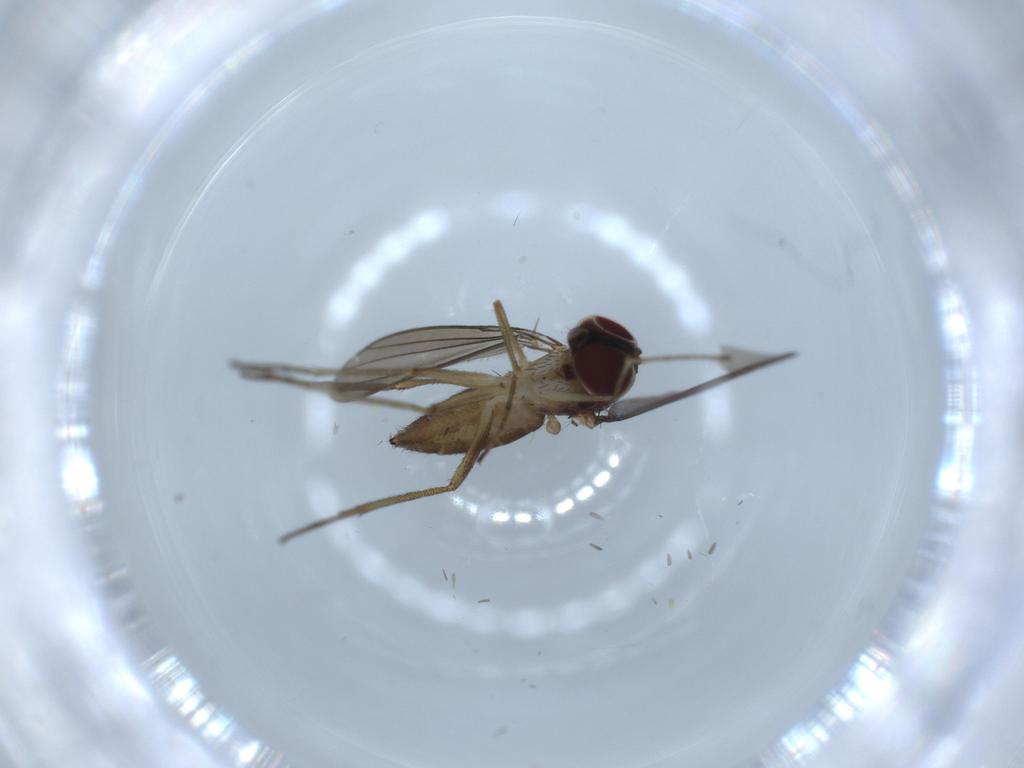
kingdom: Animalia
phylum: Arthropoda
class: Insecta
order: Diptera
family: Dolichopodidae
